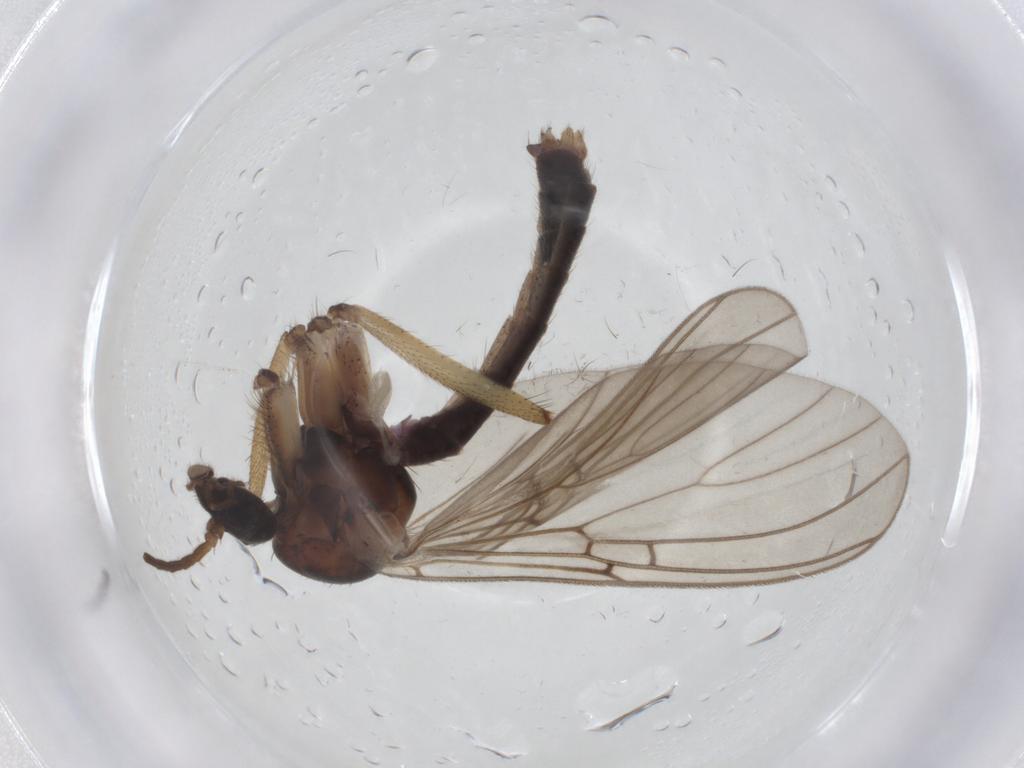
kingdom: Animalia
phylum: Arthropoda
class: Insecta
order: Diptera
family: Mycetophilidae
